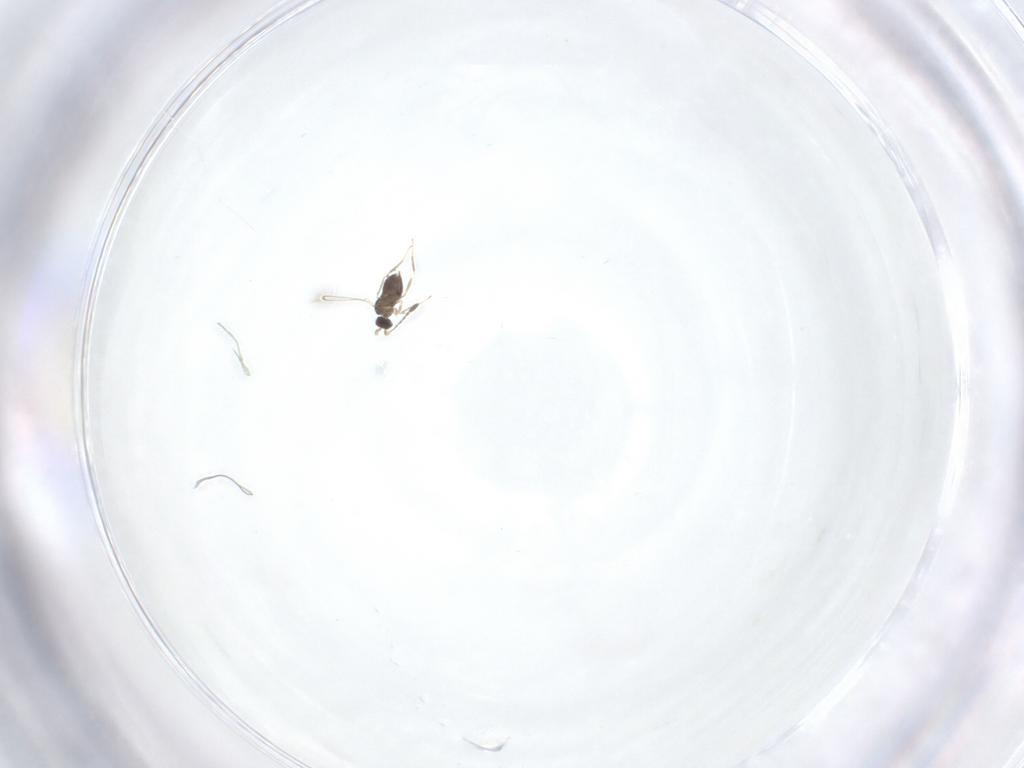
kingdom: Animalia
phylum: Arthropoda
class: Insecta
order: Hymenoptera
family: Mymaridae
